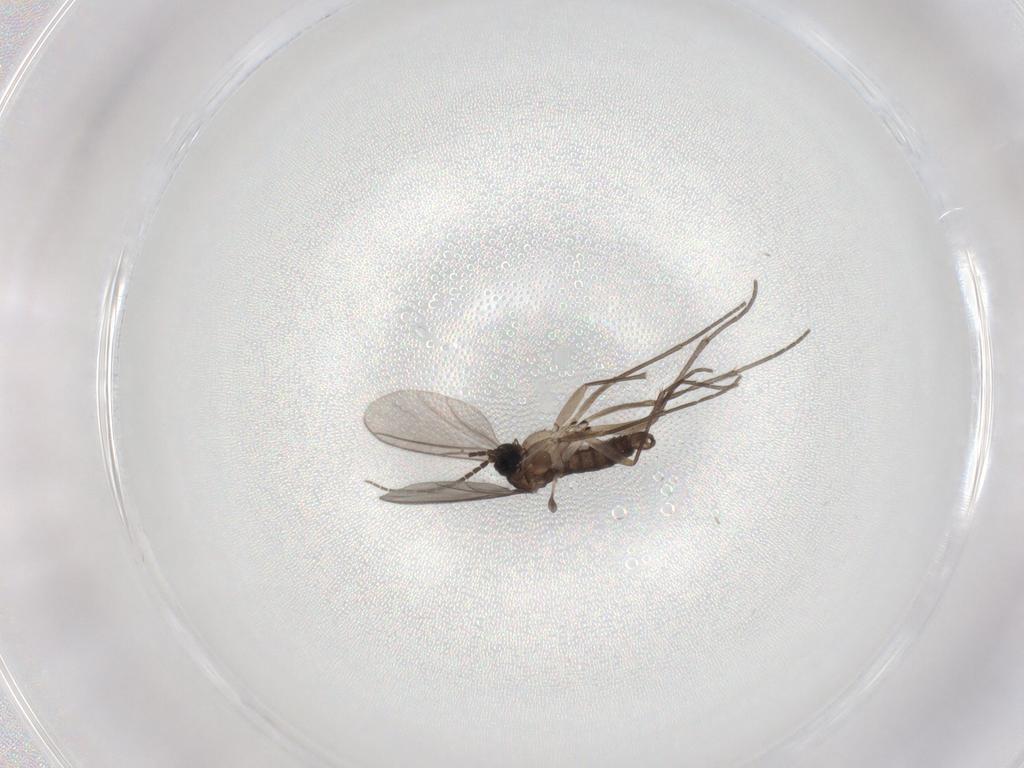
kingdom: Animalia
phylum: Arthropoda
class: Insecta
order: Diptera
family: Sciaridae
